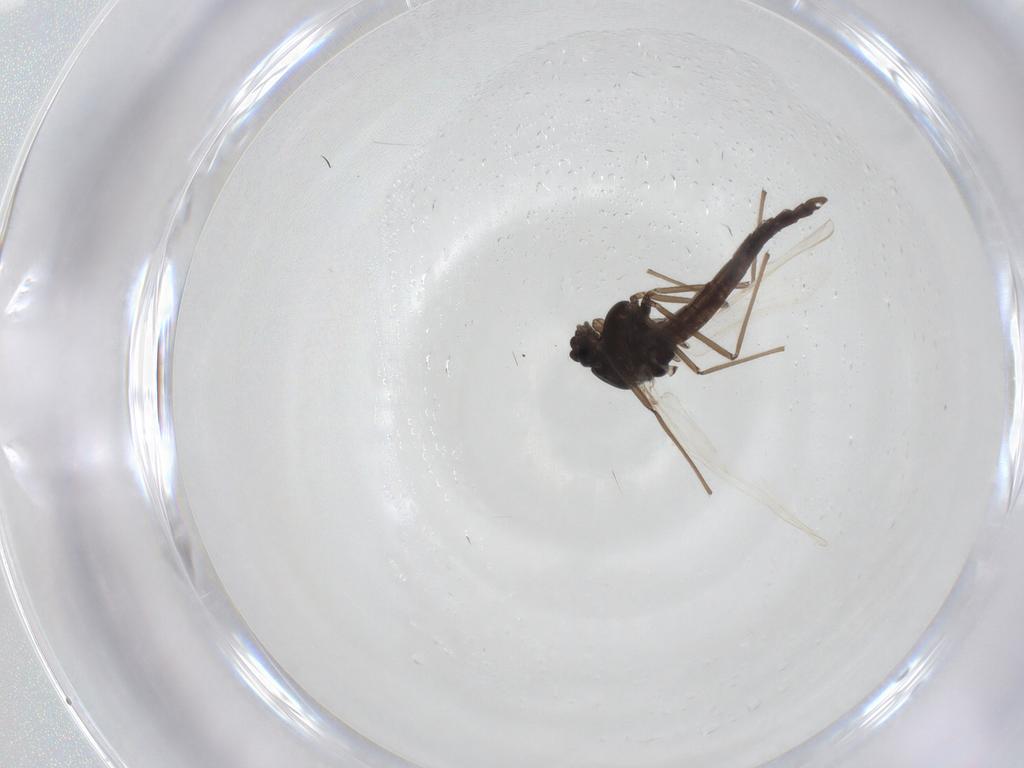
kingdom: Animalia
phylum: Arthropoda
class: Insecta
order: Diptera
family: Chironomidae
